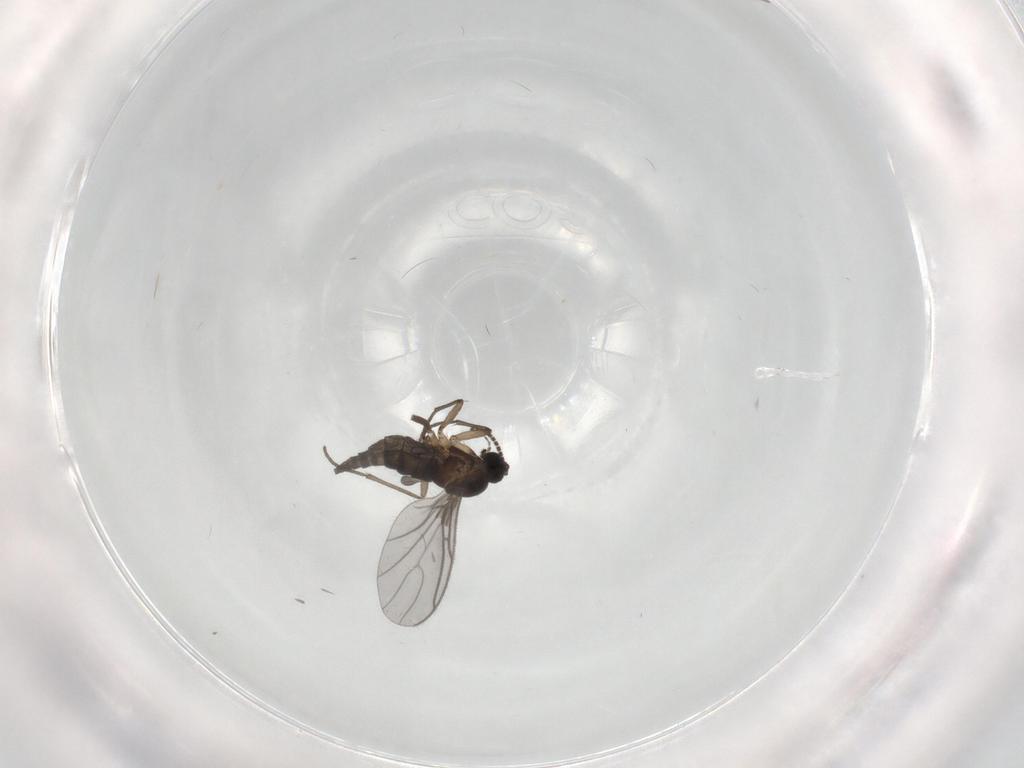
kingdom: Animalia
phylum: Arthropoda
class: Insecta
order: Diptera
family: Sciaridae
